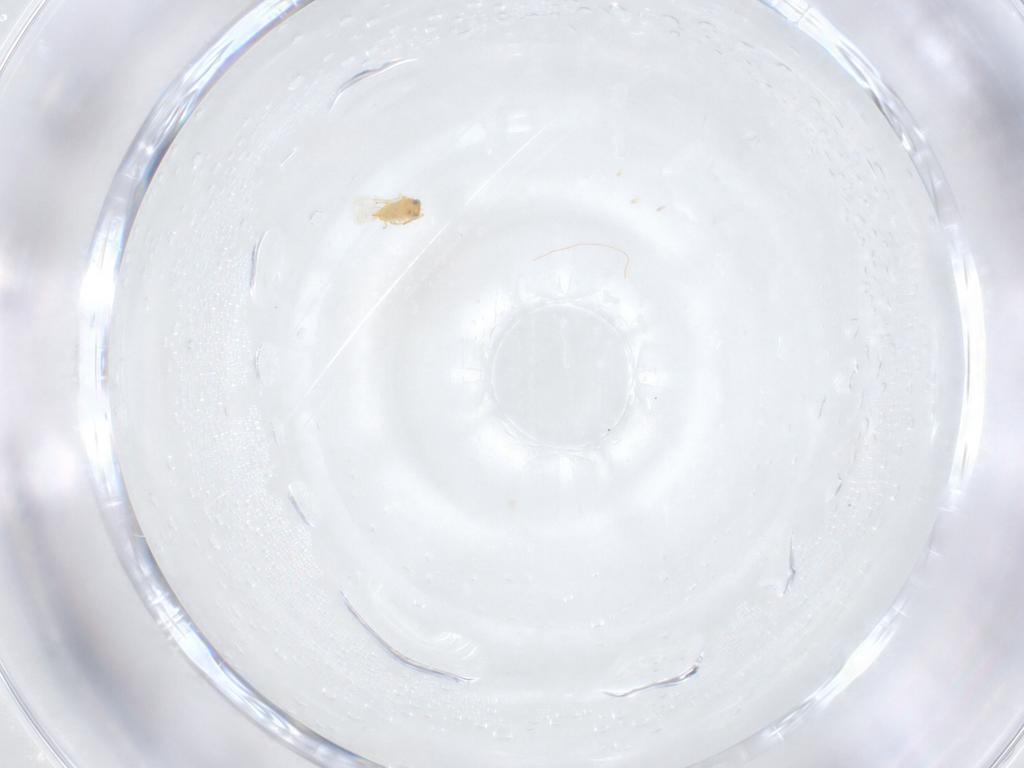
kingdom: Animalia
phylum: Arthropoda
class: Insecta
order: Hymenoptera
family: Aphelinidae
